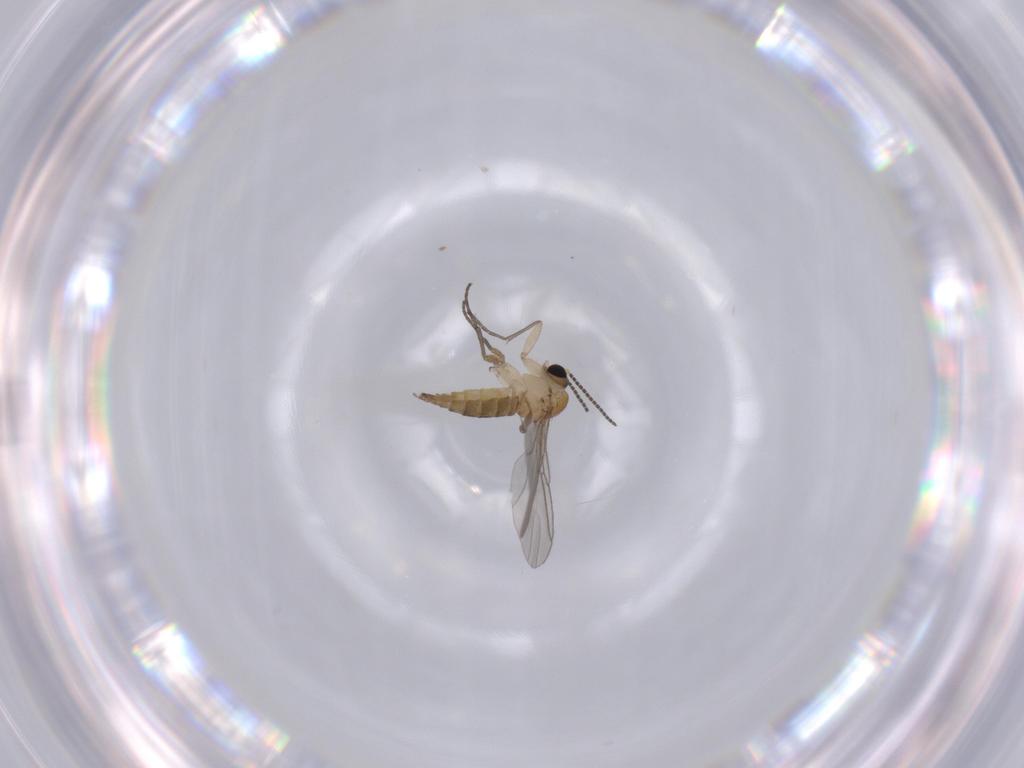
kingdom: Animalia
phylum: Arthropoda
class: Insecta
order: Diptera
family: Sciaridae
